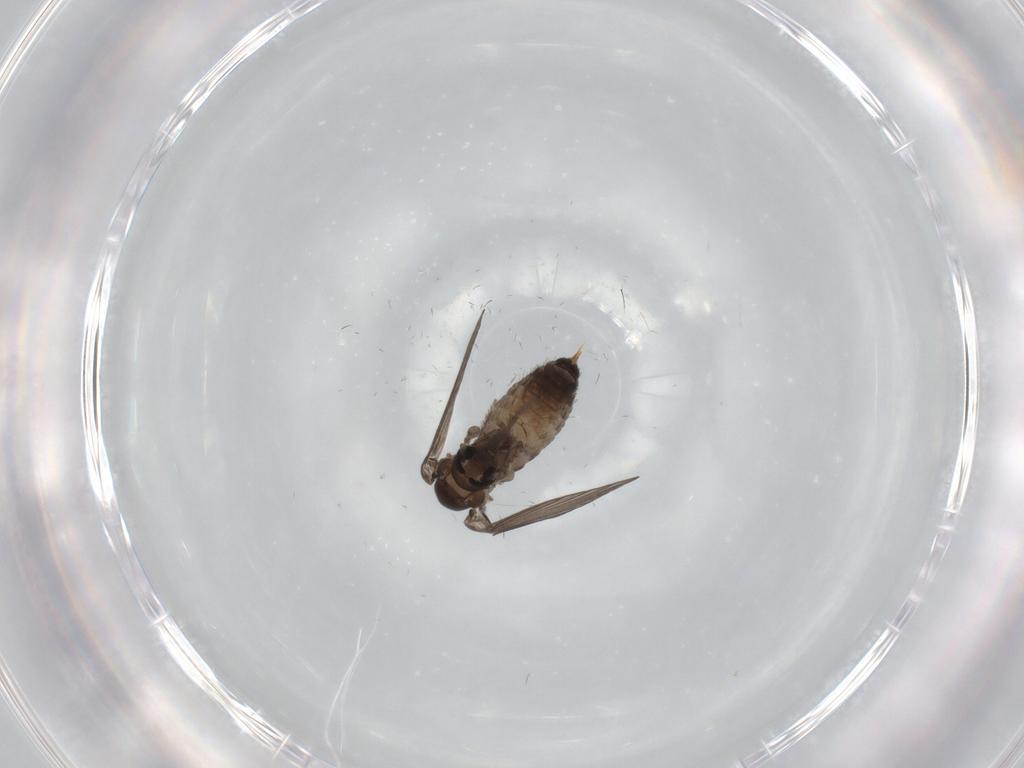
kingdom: Animalia
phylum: Arthropoda
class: Insecta
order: Diptera
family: Psychodidae
